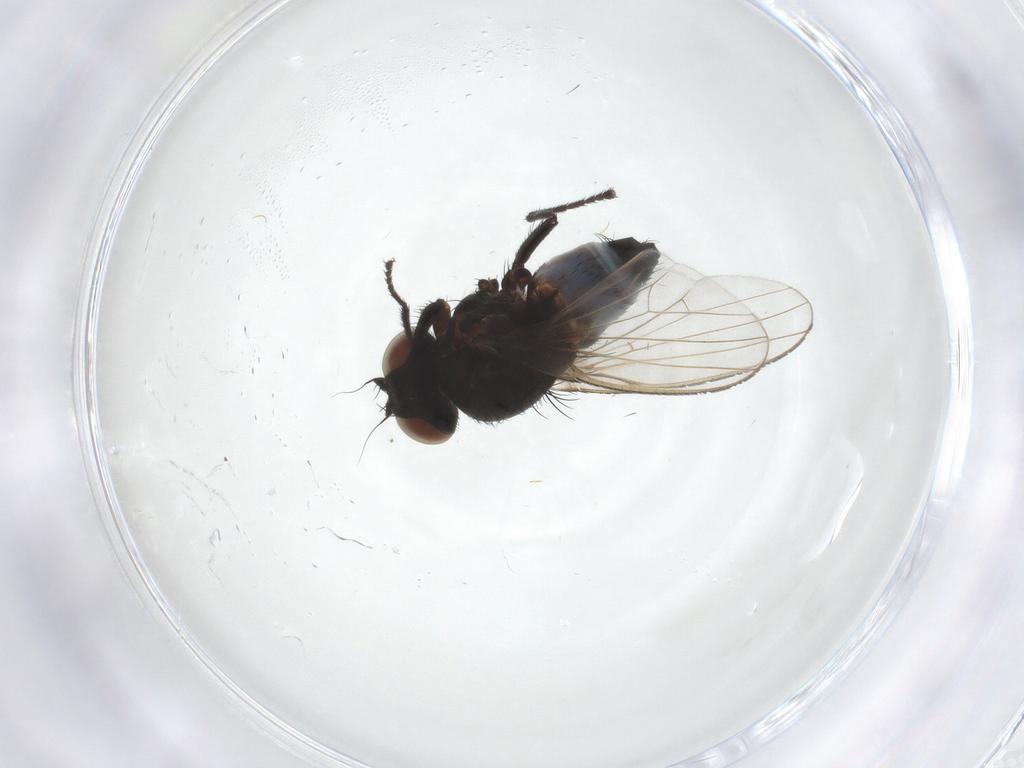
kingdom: Animalia
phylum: Arthropoda
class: Insecta
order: Diptera
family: Milichiidae
